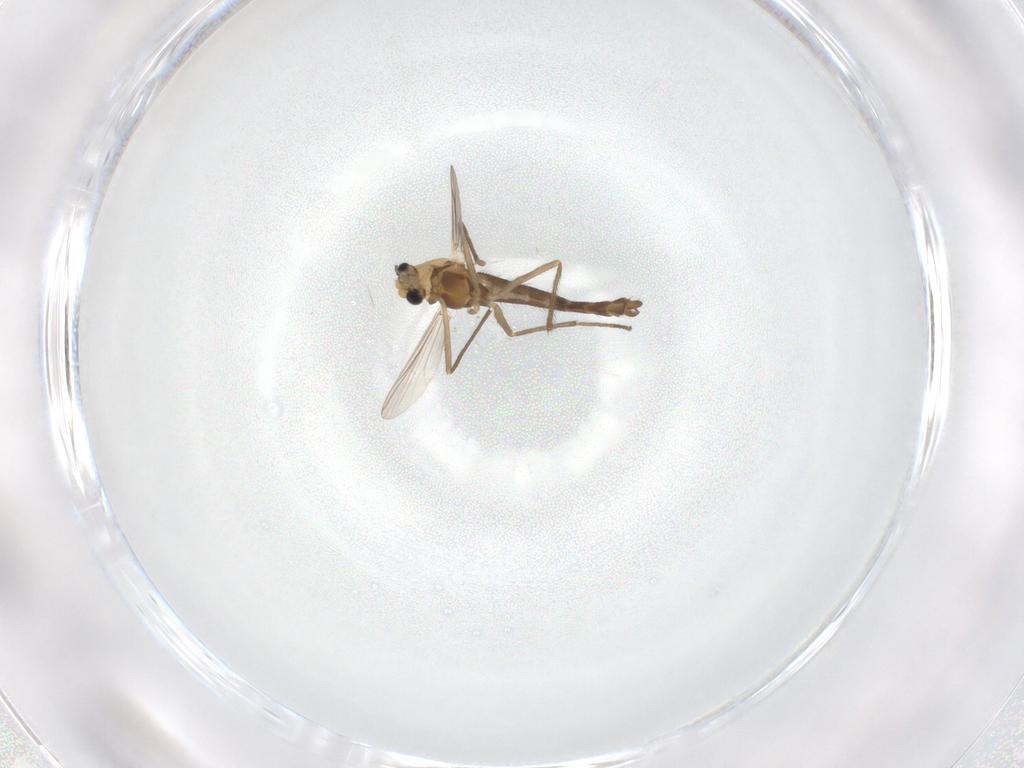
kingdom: Animalia
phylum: Arthropoda
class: Insecta
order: Diptera
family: Chironomidae
